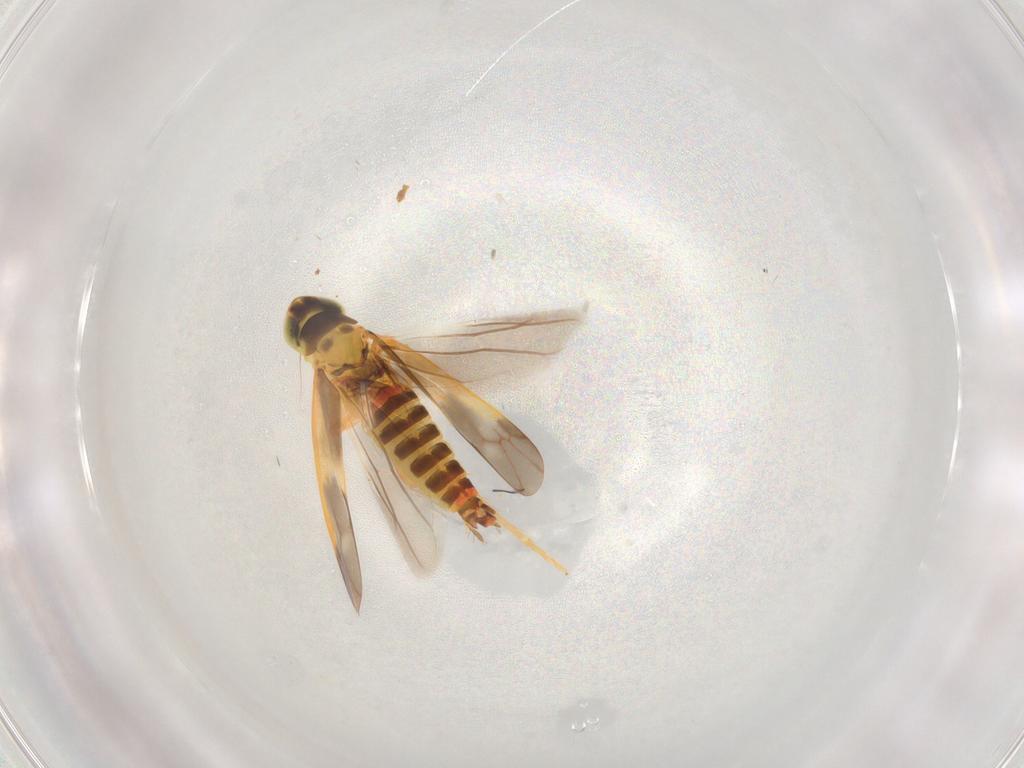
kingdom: Animalia
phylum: Arthropoda
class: Insecta
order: Hemiptera
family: Cicadellidae
